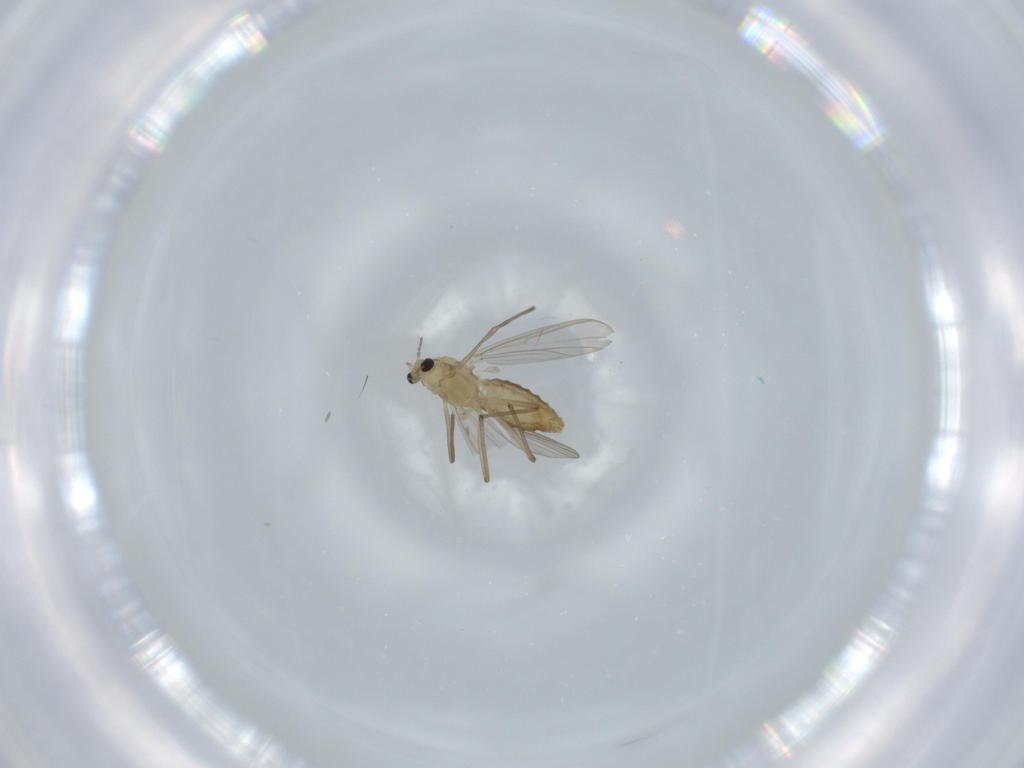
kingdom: Animalia
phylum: Arthropoda
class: Insecta
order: Diptera
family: Chironomidae
